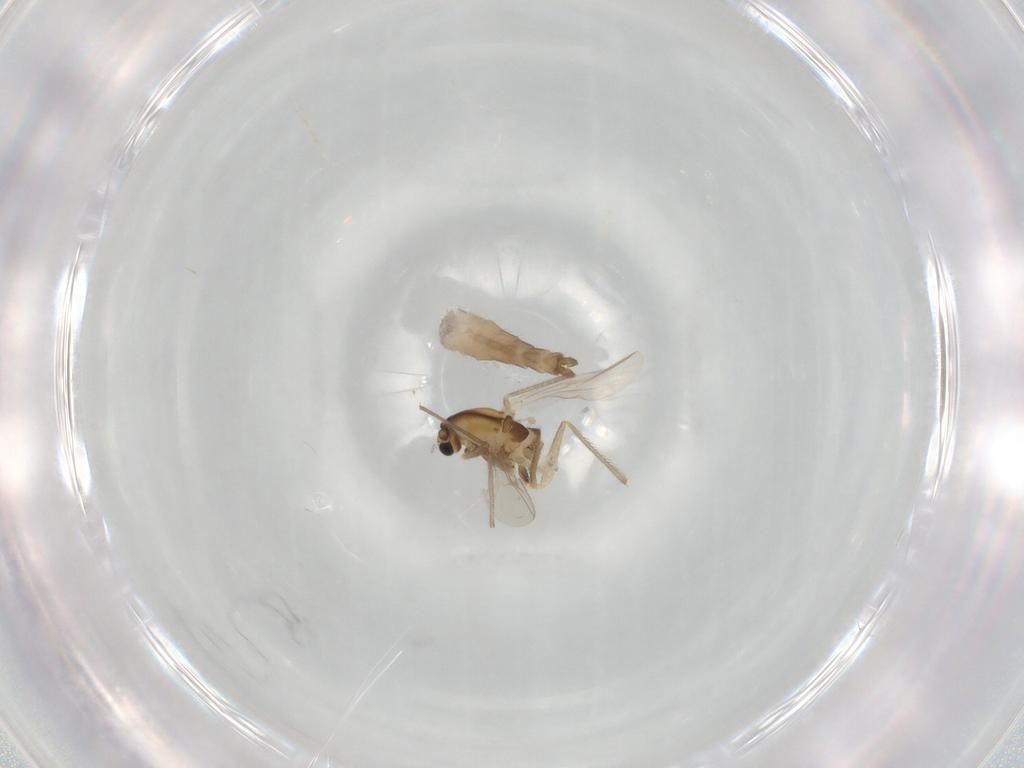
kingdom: Animalia
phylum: Arthropoda
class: Insecta
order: Diptera
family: Chironomidae
